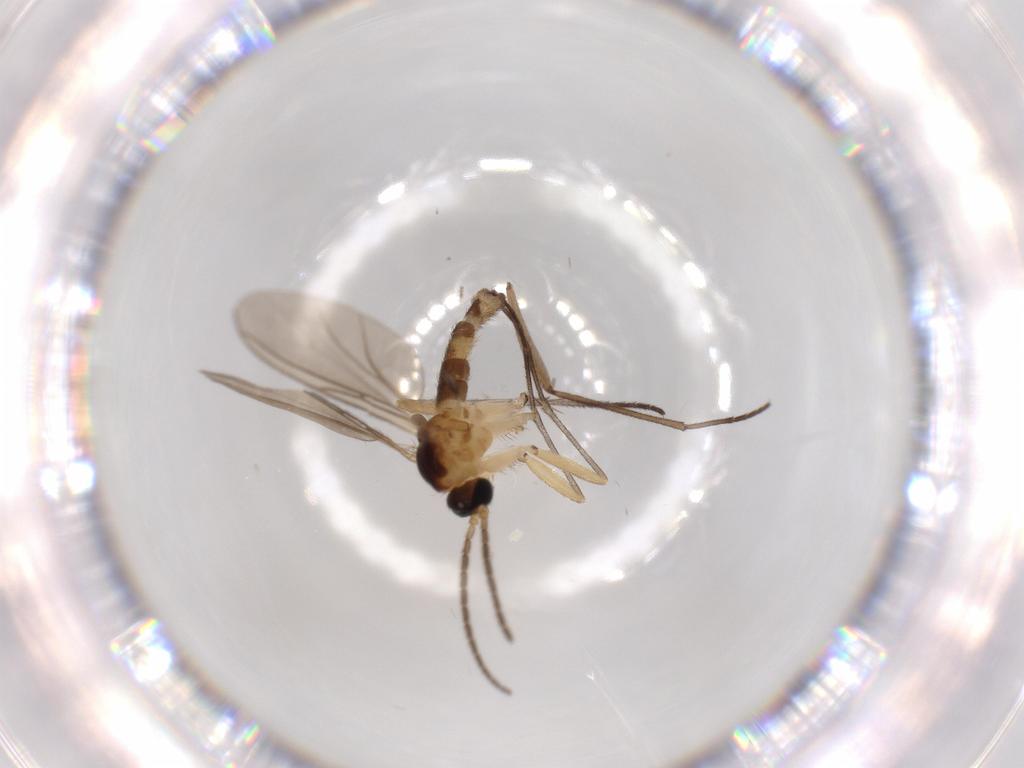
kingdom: Animalia
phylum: Arthropoda
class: Insecta
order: Diptera
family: Sciaridae
